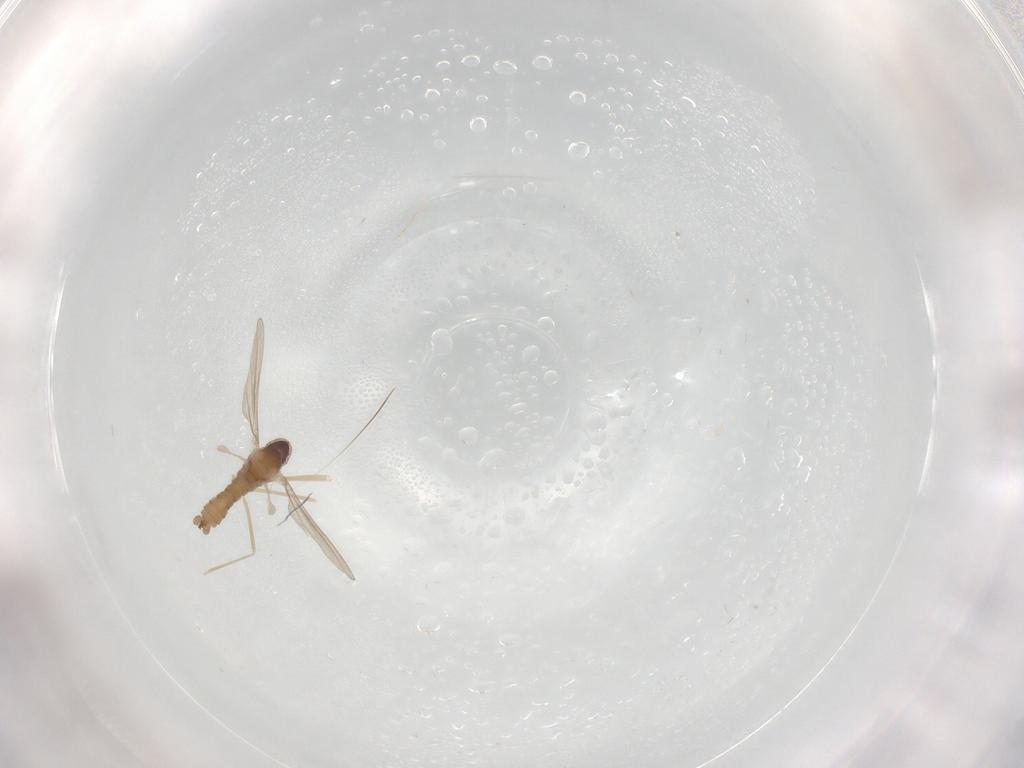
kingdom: Animalia
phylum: Arthropoda
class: Insecta
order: Diptera
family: Cecidomyiidae
